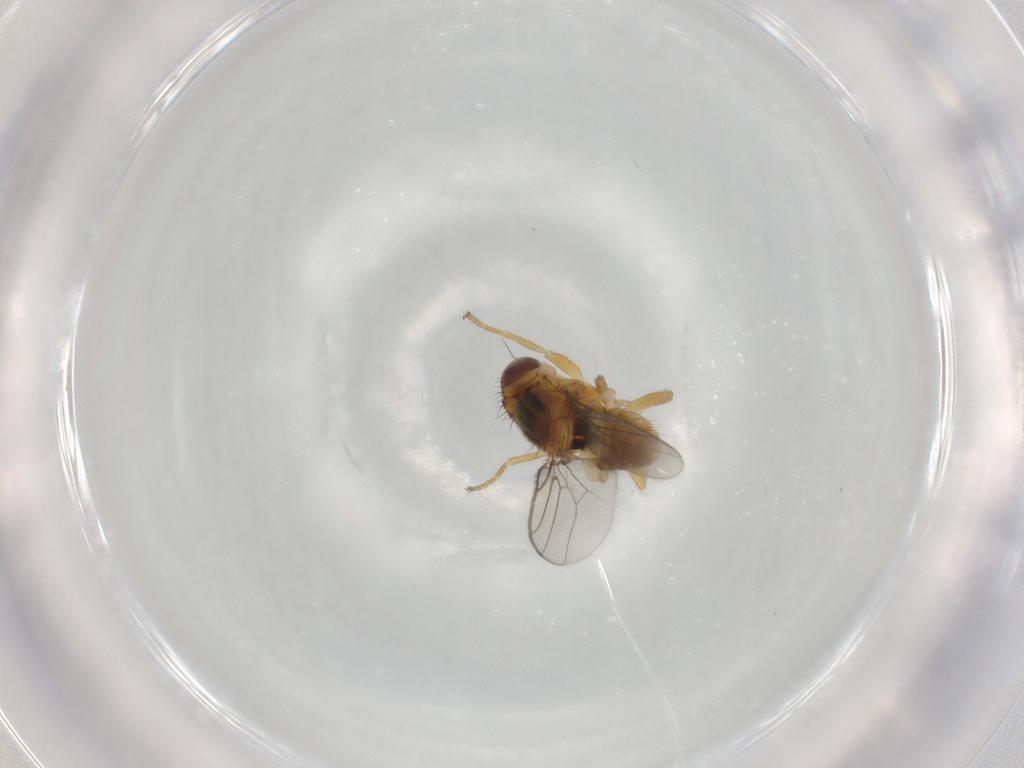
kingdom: Animalia
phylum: Arthropoda
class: Insecta
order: Diptera
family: Chloropidae
